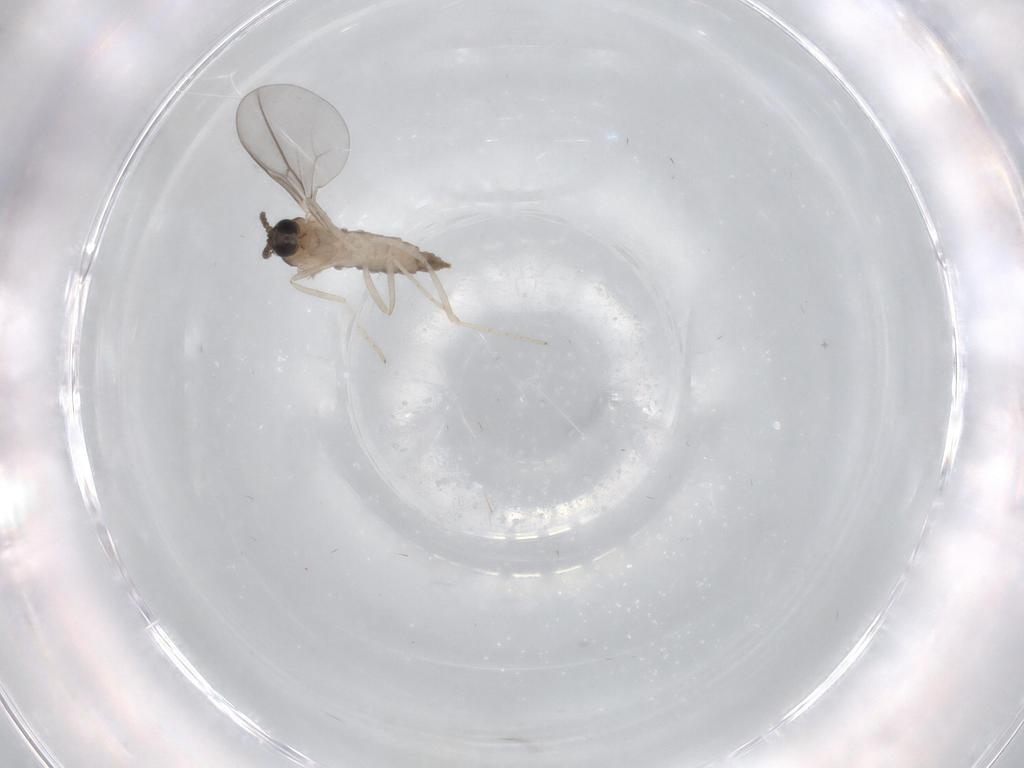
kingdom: Animalia
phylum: Arthropoda
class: Insecta
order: Diptera
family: Cecidomyiidae
